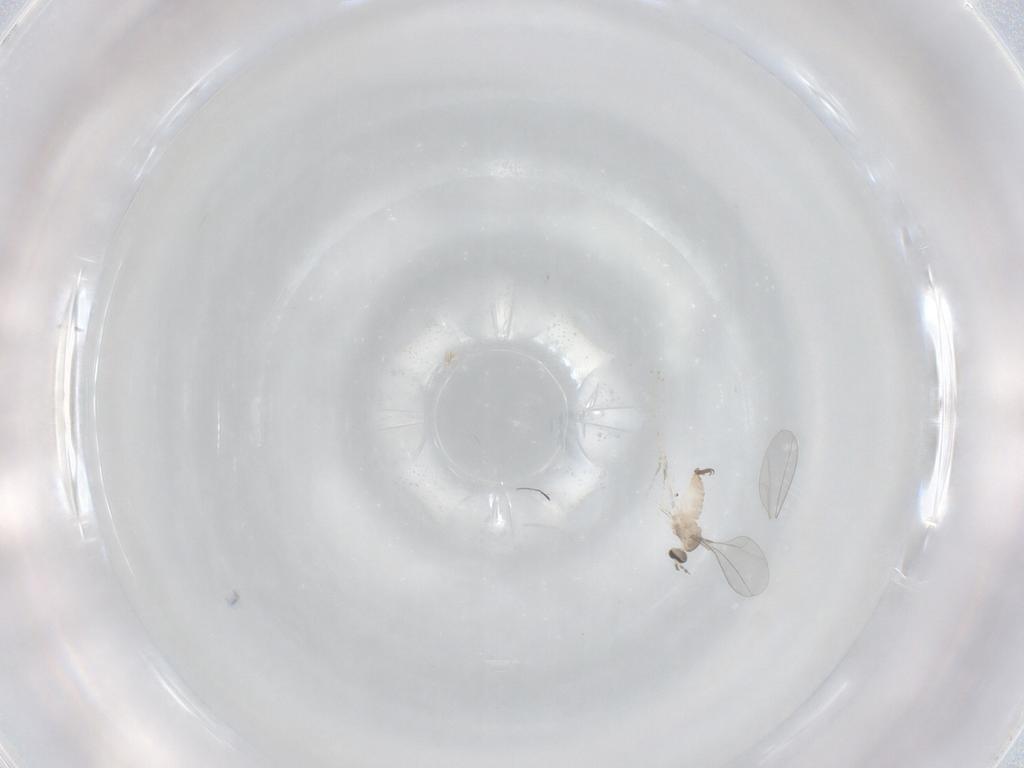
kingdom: Animalia
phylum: Arthropoda
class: Insecta
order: Diptera
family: Cecidomyiidae
